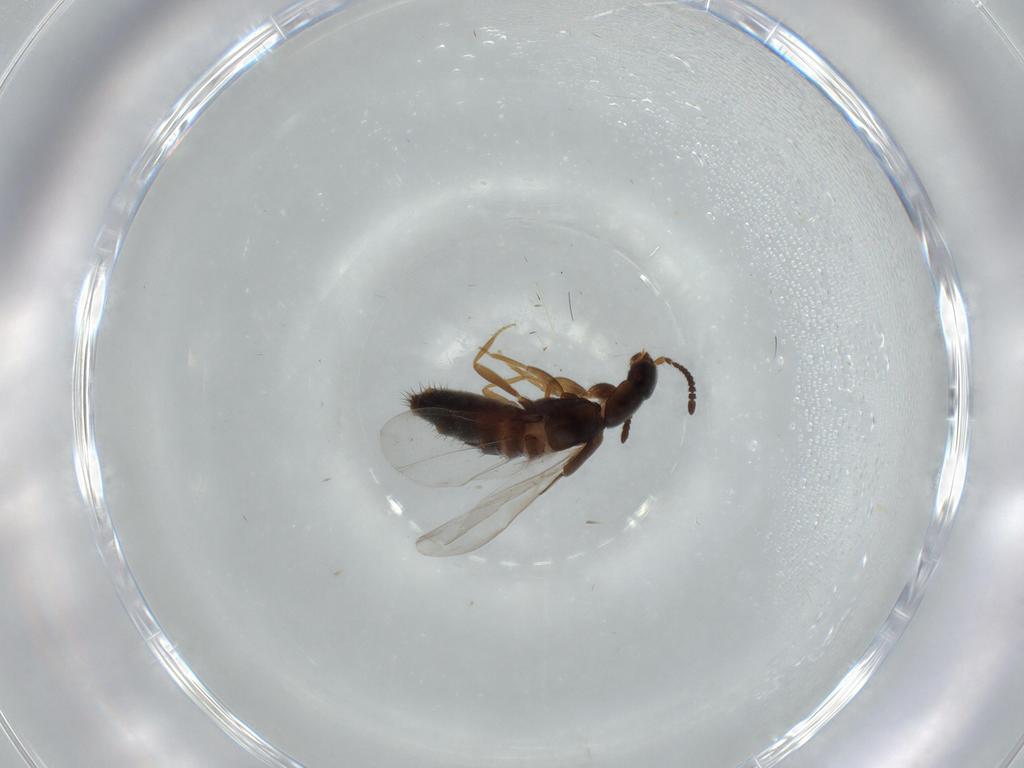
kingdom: Animalia
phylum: Arthropoda
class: Insecta
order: Coleoptera
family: Staphylinidae
